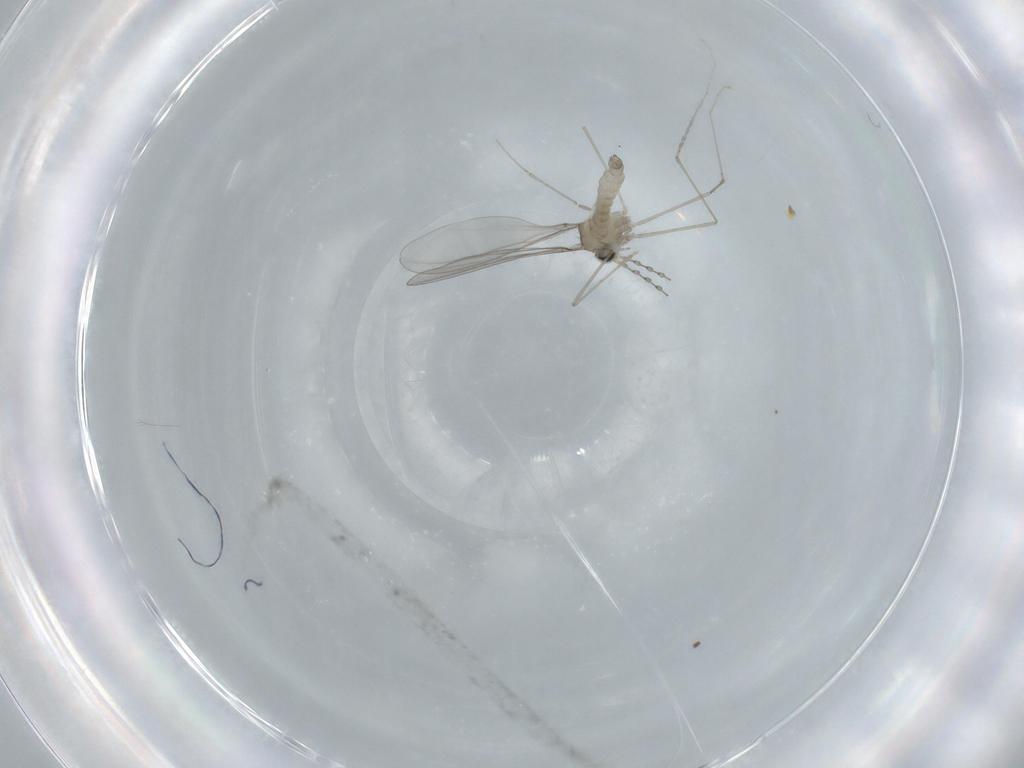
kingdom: Animalia
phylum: Arthropoda
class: Insecta
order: Diptera
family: Cecidomyiidae
